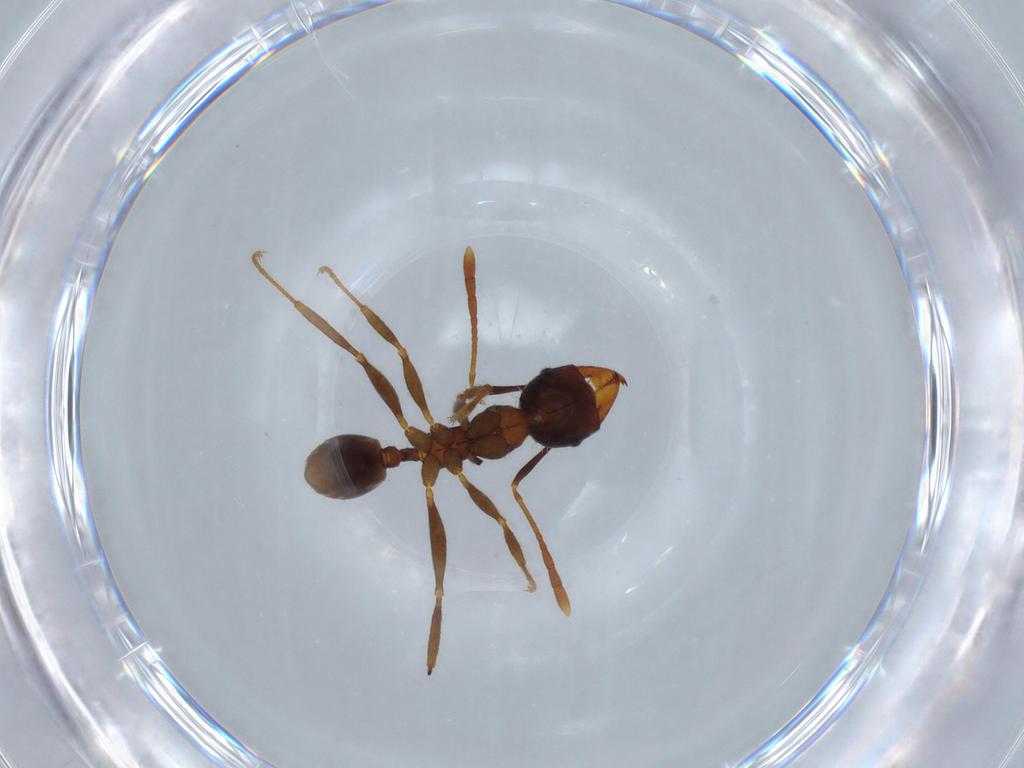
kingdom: Animalia
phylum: Arthropoda
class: Insecta
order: Hymenoptera
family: Formicidae
